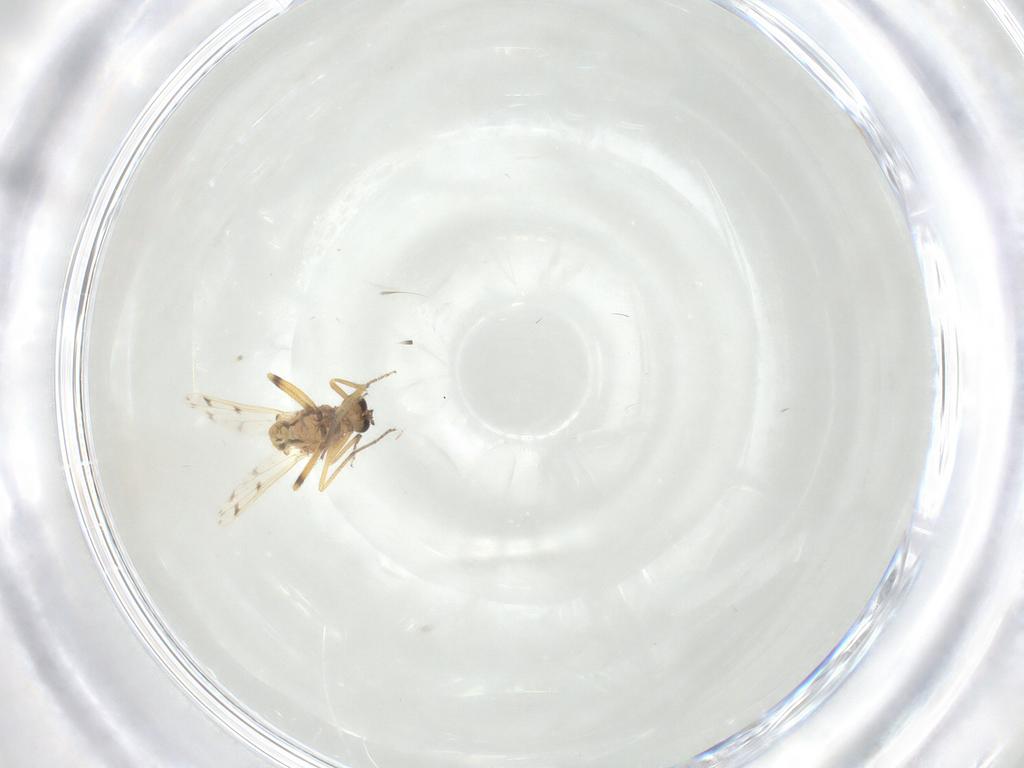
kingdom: Animalia
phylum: Arthropoda
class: Insecta
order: Diptera
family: Ceratopogonidae
